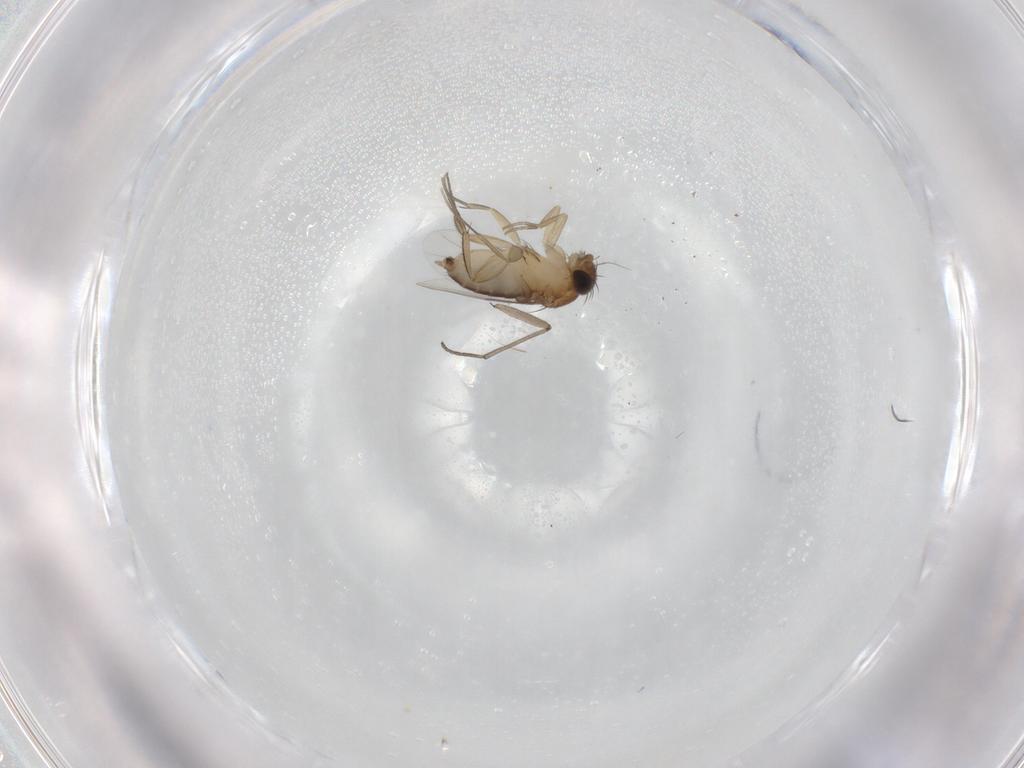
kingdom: Animalia
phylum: Arthropoda
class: Insecta
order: Diptera
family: Phoridae
